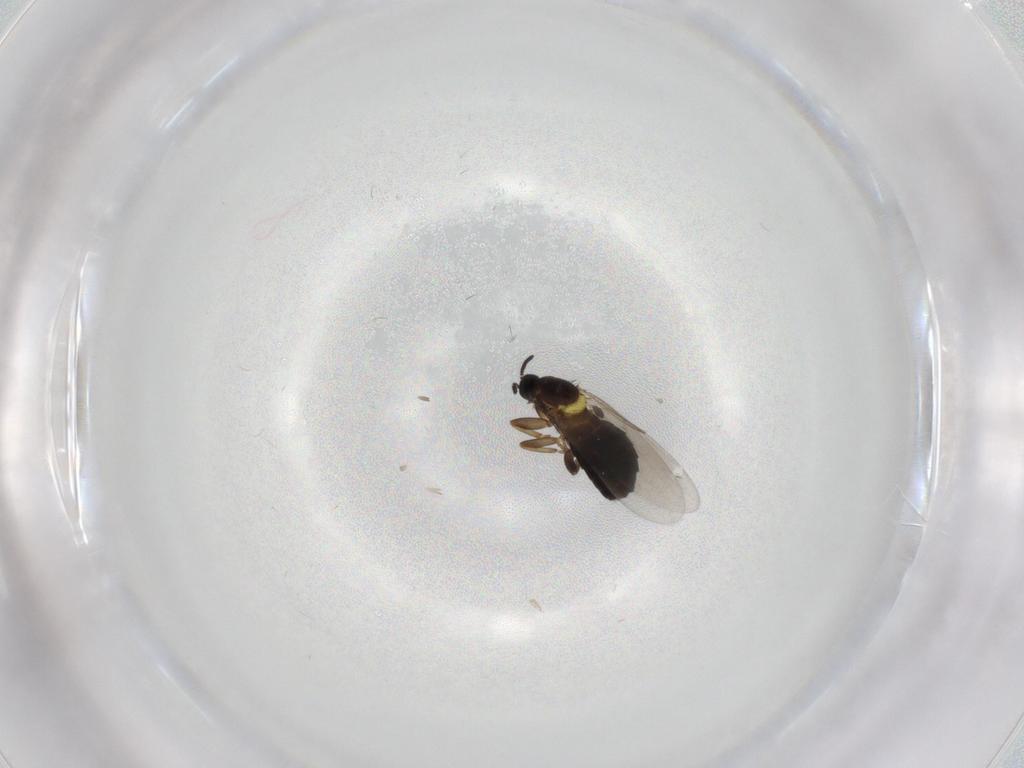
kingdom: Animalia
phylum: Arthropoda
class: Insecta
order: Diptera
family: Scatopsidae
